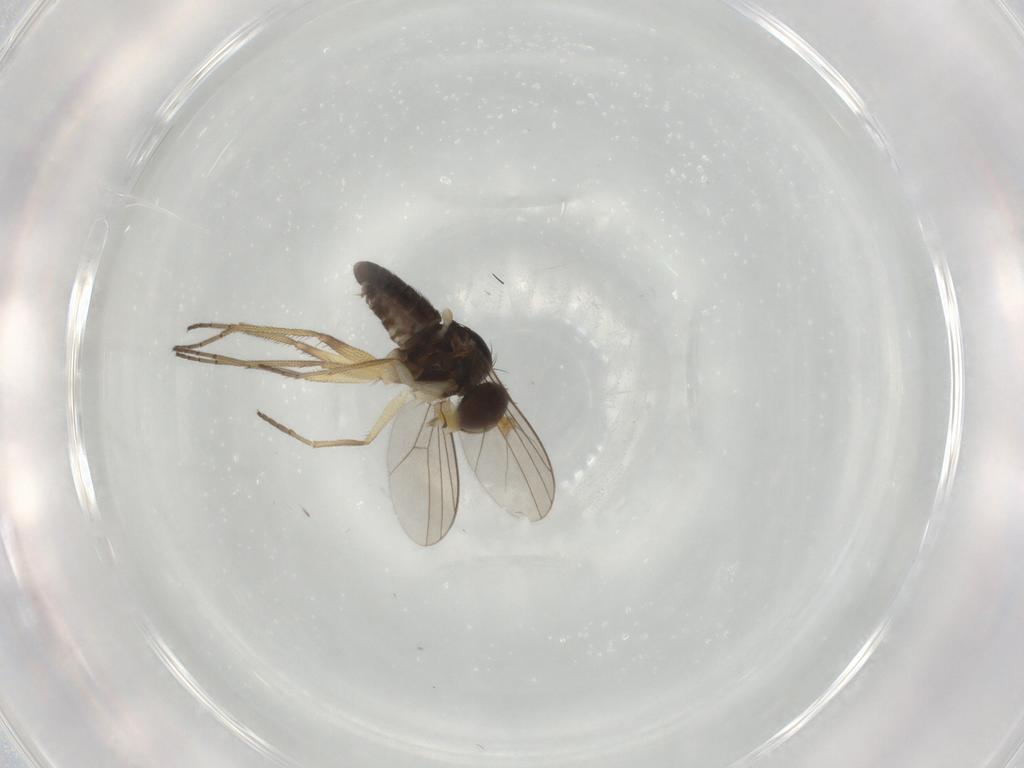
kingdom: Animalia
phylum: Arthropoda
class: Insecta
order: Diptera
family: Dolichopodidae
